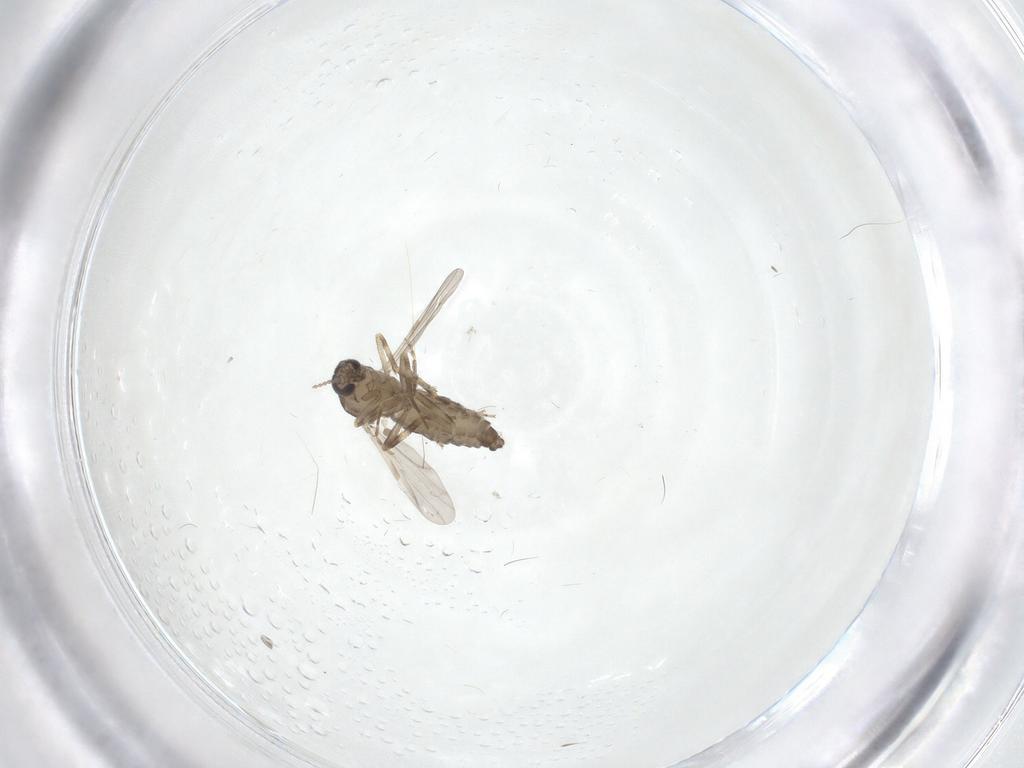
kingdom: Animalia
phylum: Arthropoda
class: Insecta
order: Diptera
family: Ceratopogonidae
